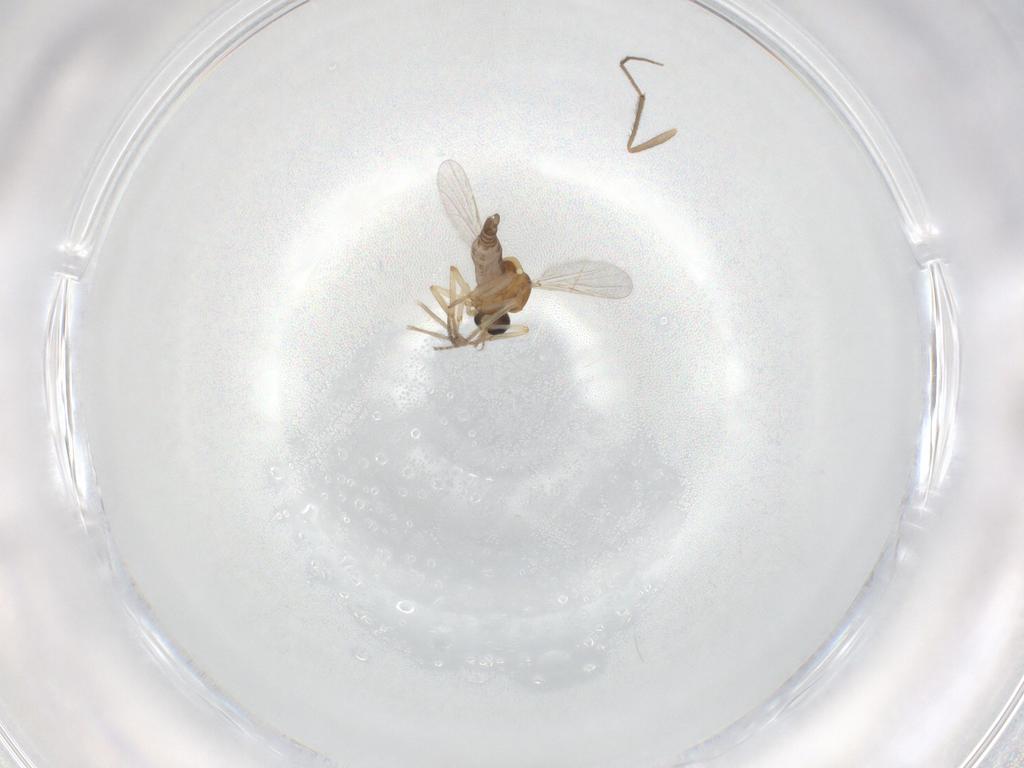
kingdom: Animalia
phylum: Arthropoda
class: Insecta
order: Diptera
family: Chironomidae
